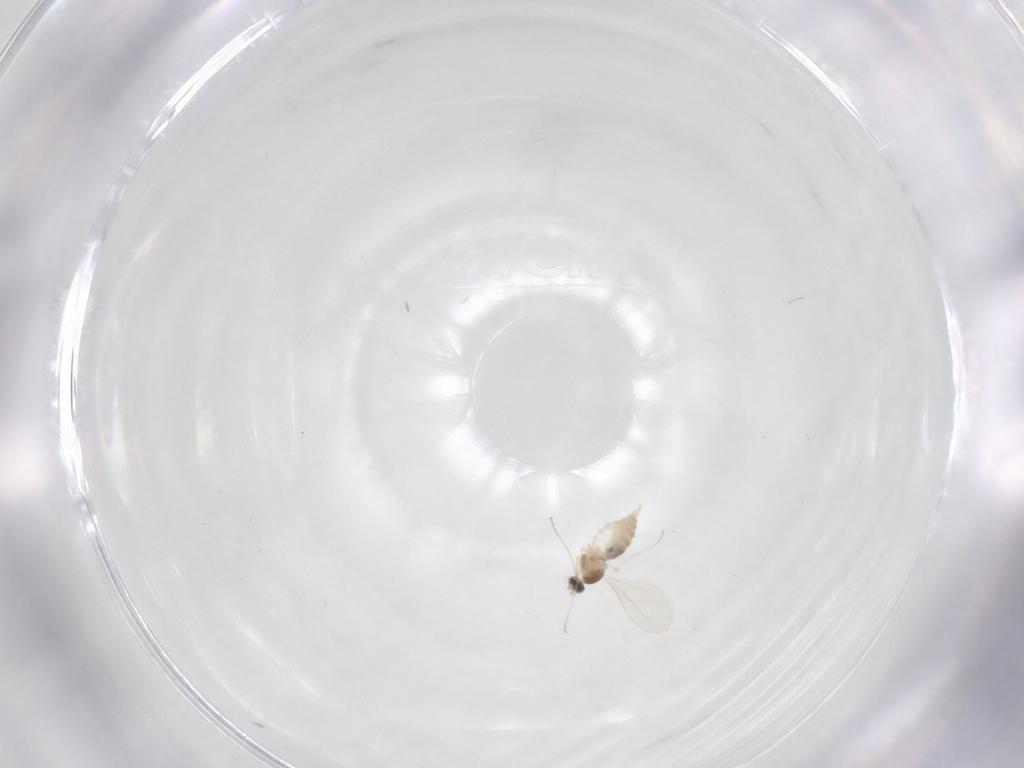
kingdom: Animalia
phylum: Arthropoda
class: Insecta
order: Diptera
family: Cecidomyiidae
